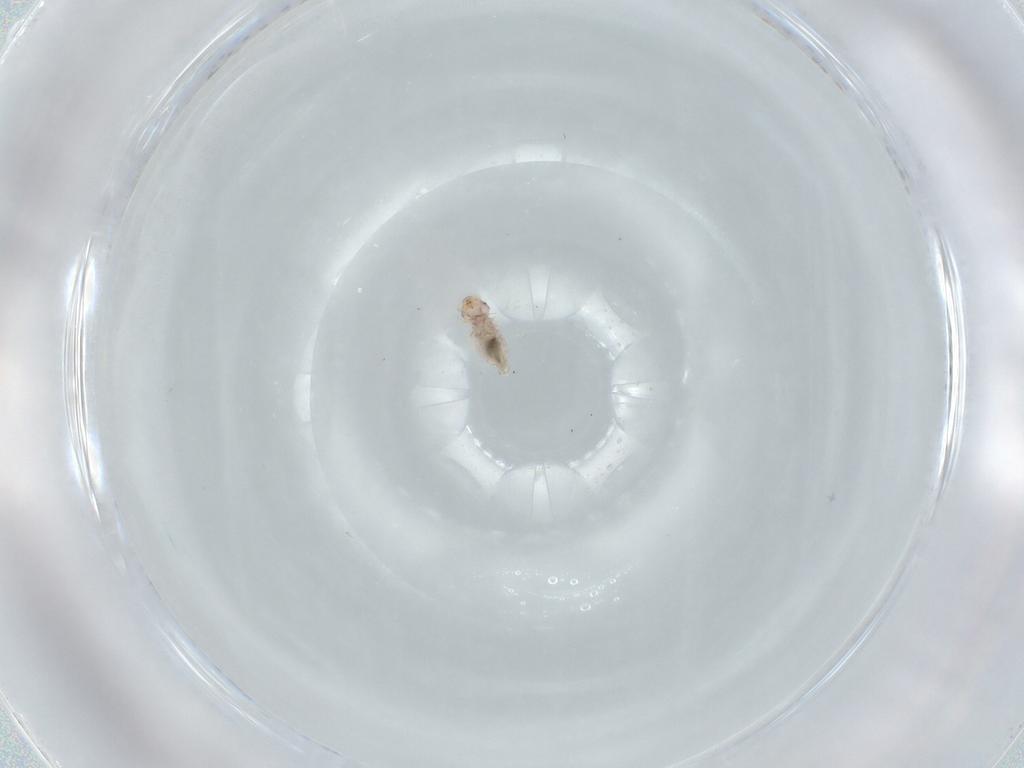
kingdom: Animalia
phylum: Arthropoda
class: Insecta
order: Psocodea
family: Liposcelididae
